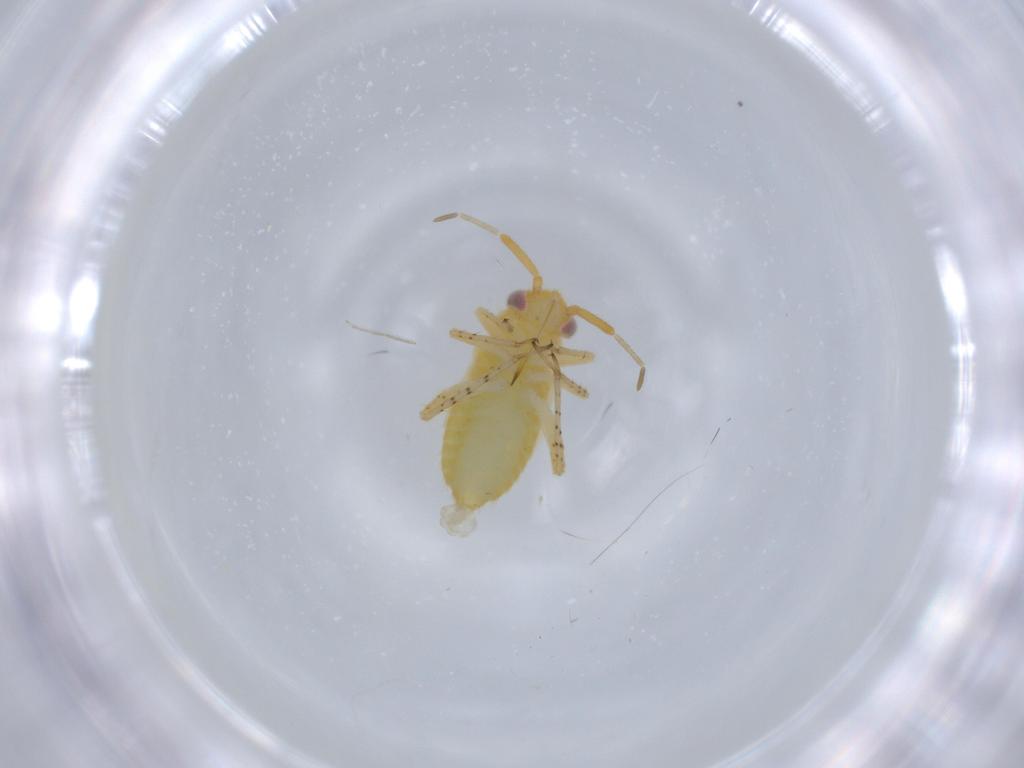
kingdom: Animalia
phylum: Arthropoda
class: Insecta
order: Hemiptera
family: Miridae
